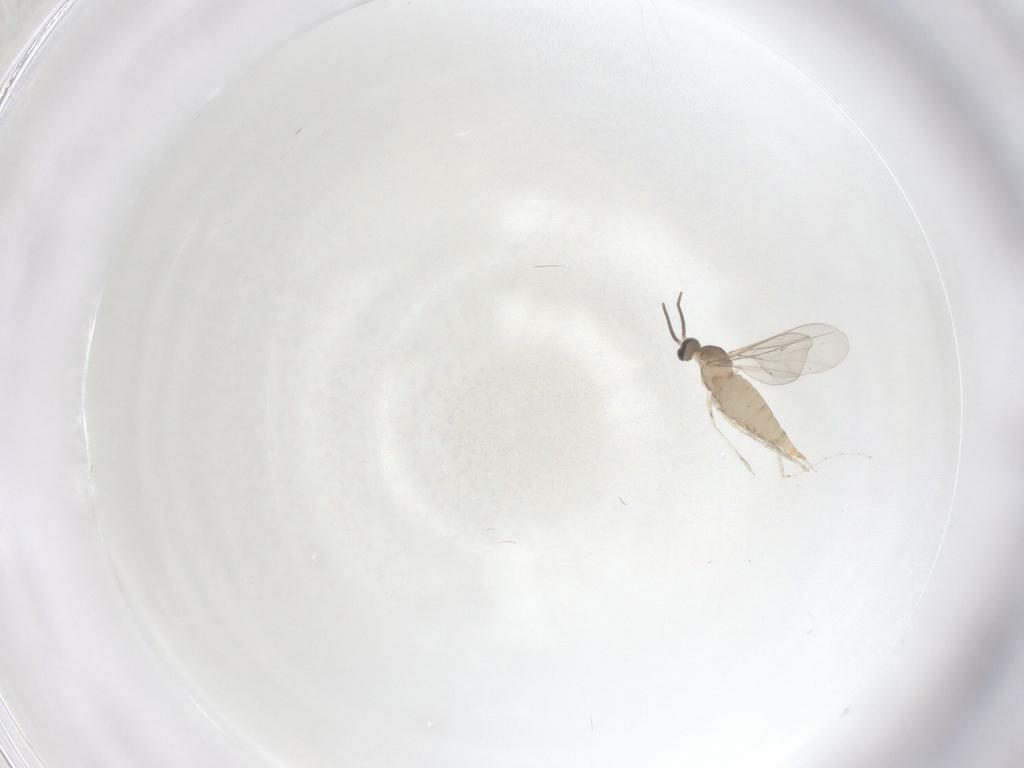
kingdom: Animalia
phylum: Arthropoda
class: Insecta
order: Diptera
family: Cecidomyiidae
